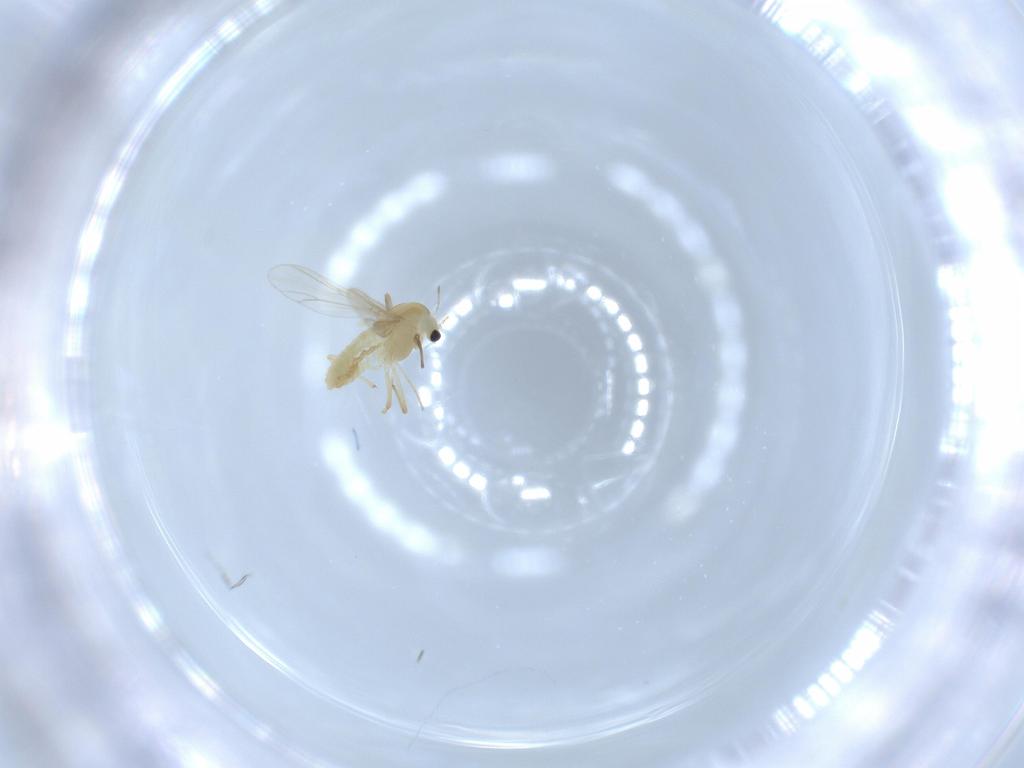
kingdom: Animalia
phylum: Arthropoda
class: Insecta
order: Diptera
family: Chironomidae
